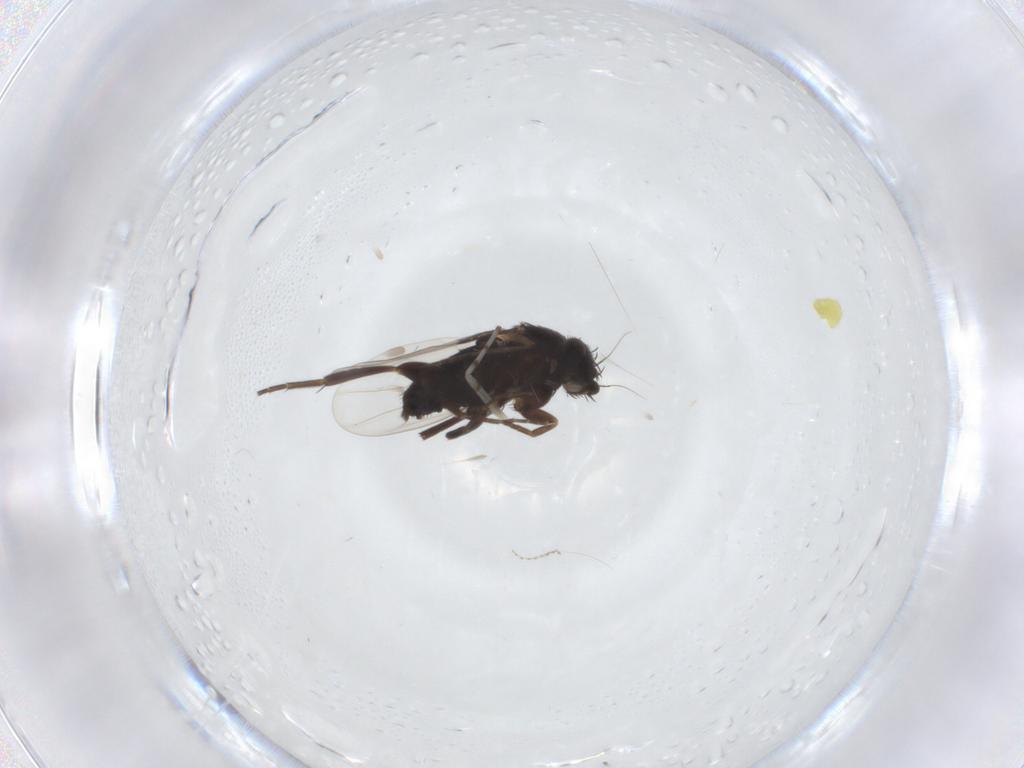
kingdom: Animalia
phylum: Arthropoda
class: Insecta
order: Diptera
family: Phoridae
